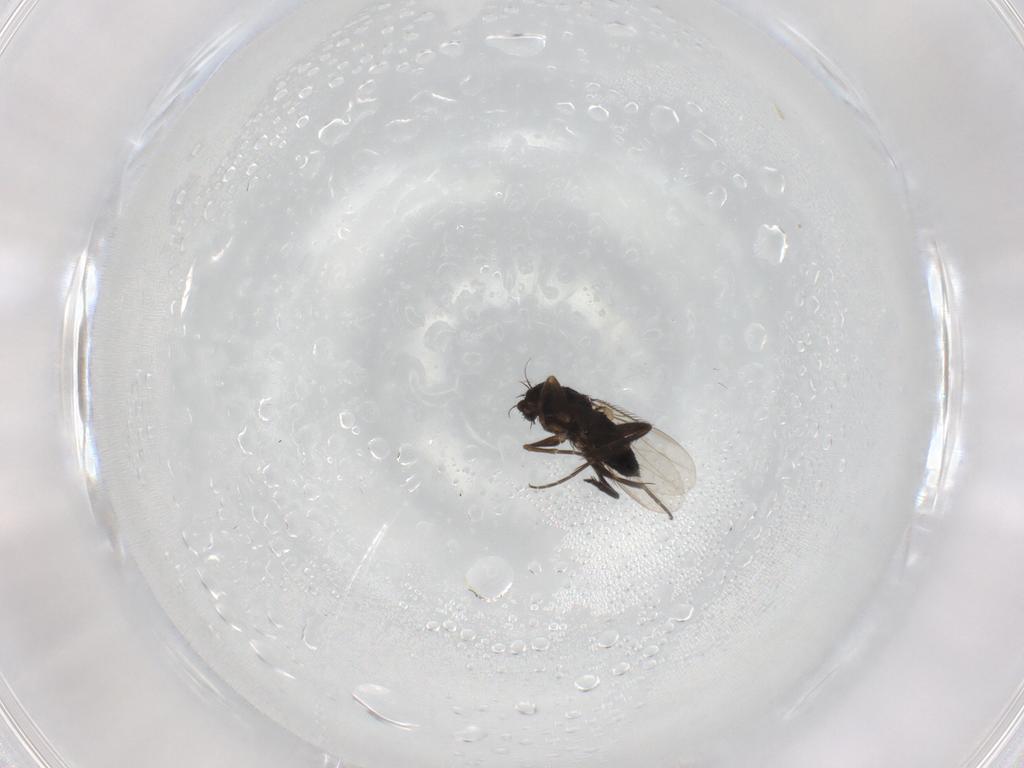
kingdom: Animalia
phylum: Arthropoda
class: Insecta
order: Diptera
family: Phoridae
